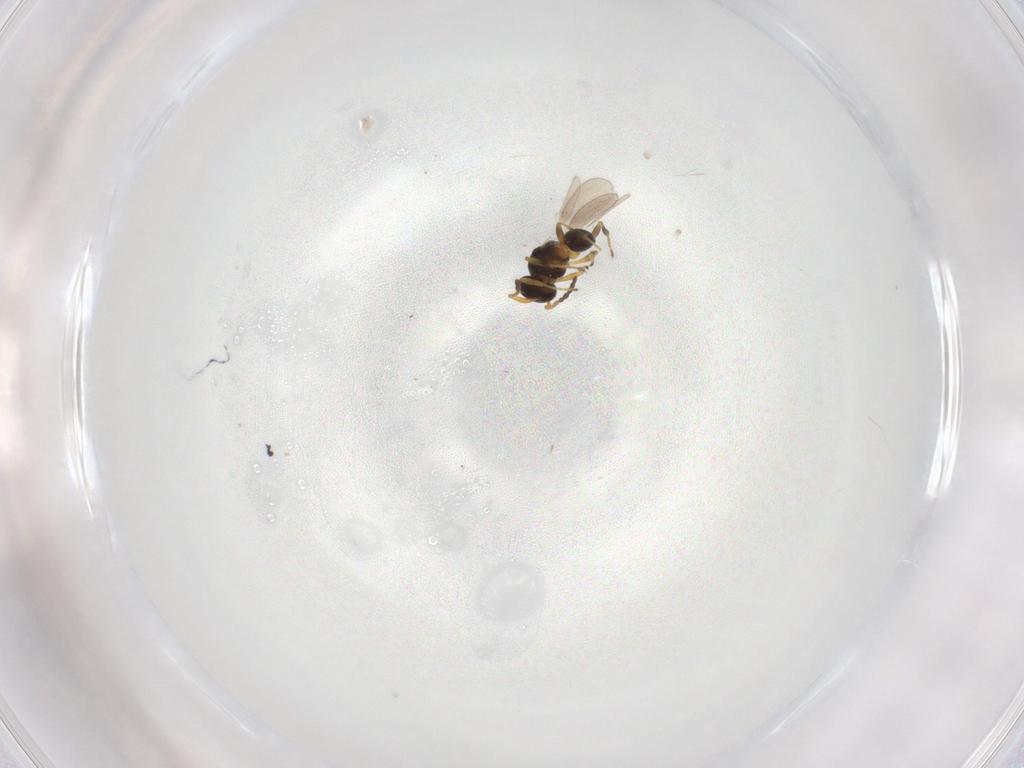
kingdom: Animalia
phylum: Arthropoda
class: Insecta
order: Hymenoptera
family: Platygastridae
